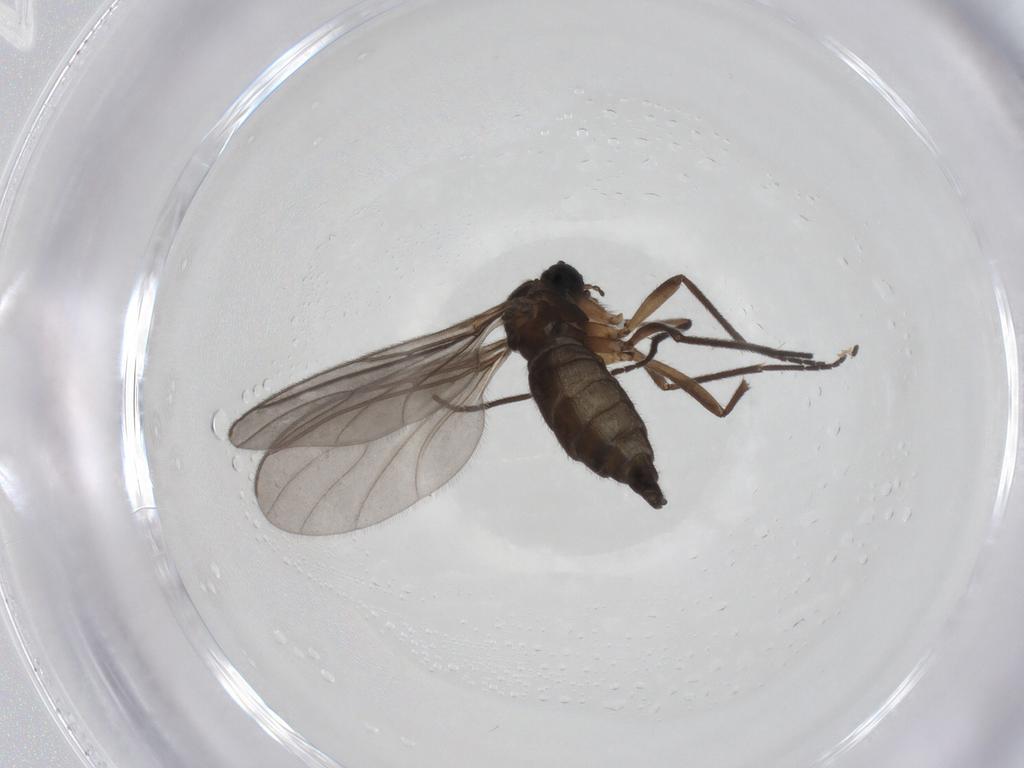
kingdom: Animalia
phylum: Arthropoda
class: Insecta
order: Diptera
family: Sciaridae
